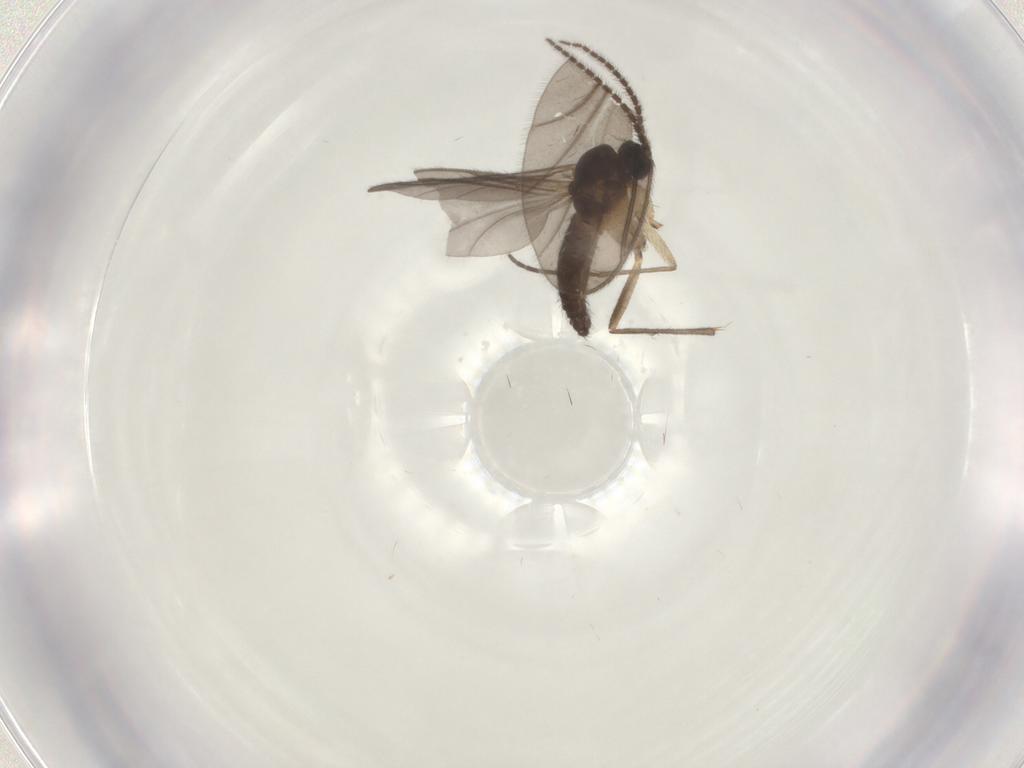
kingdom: Animalia
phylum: Arthropoda
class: Insecta
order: Diptera
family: Sciaridae
